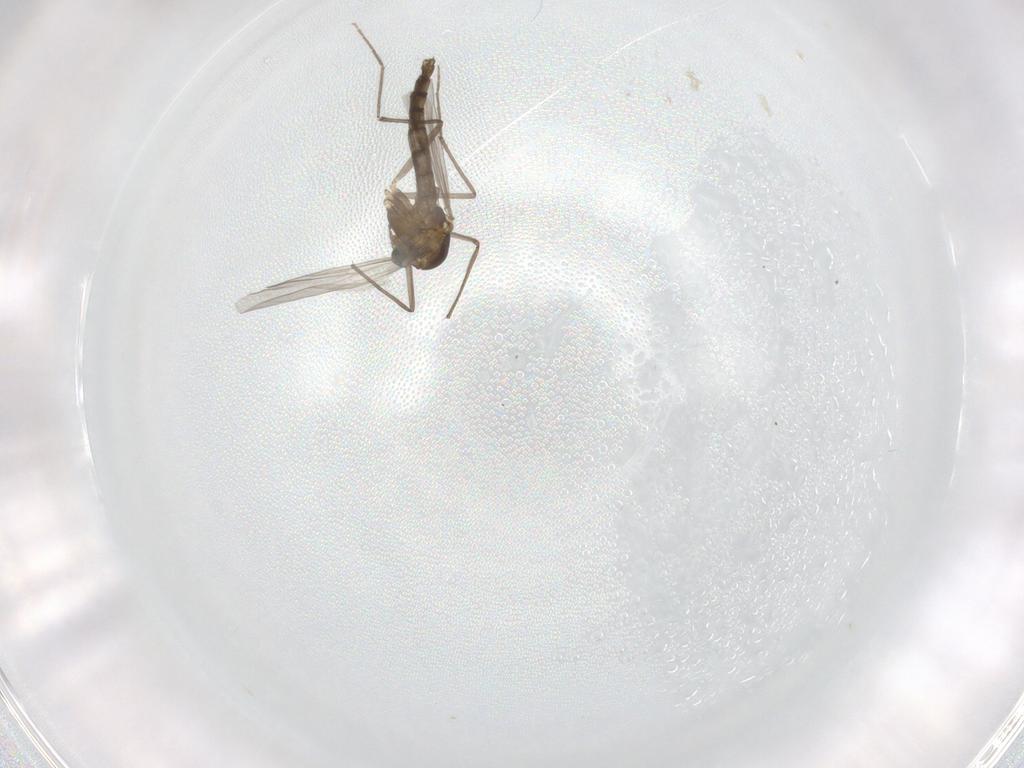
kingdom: Animalia
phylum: Arthropoda
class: Insecta
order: Diptera
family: Chironomidae
